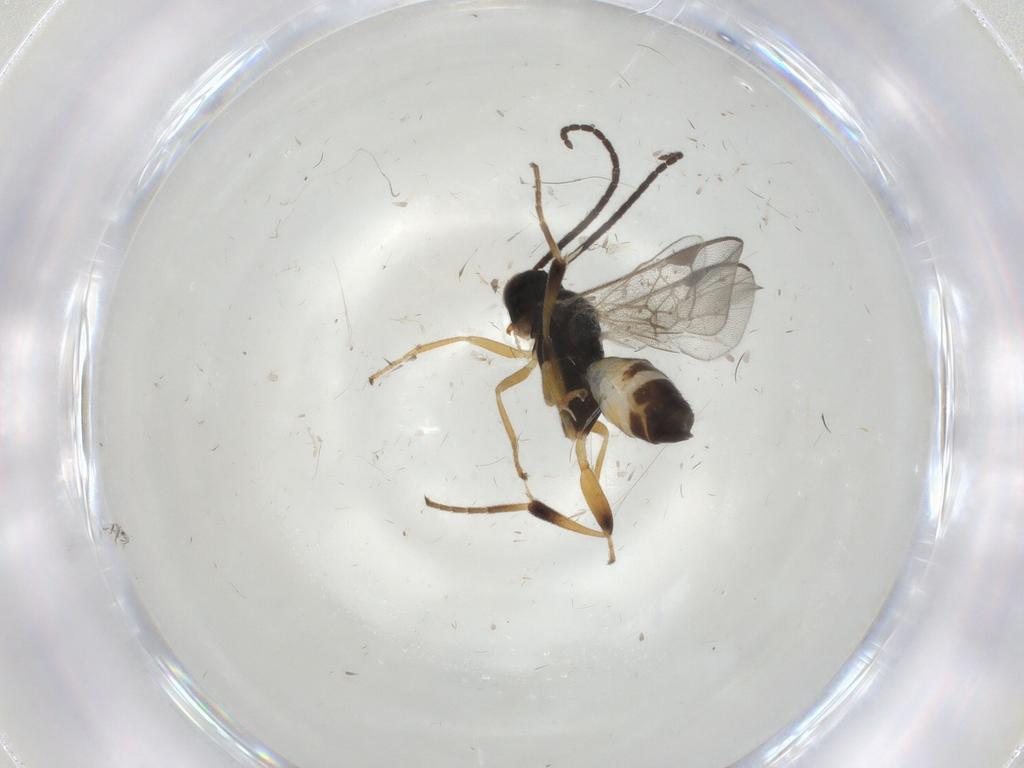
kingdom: Animalia
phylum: Arthropoda
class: Insecta
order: Hymenoptera
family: Braconidae
